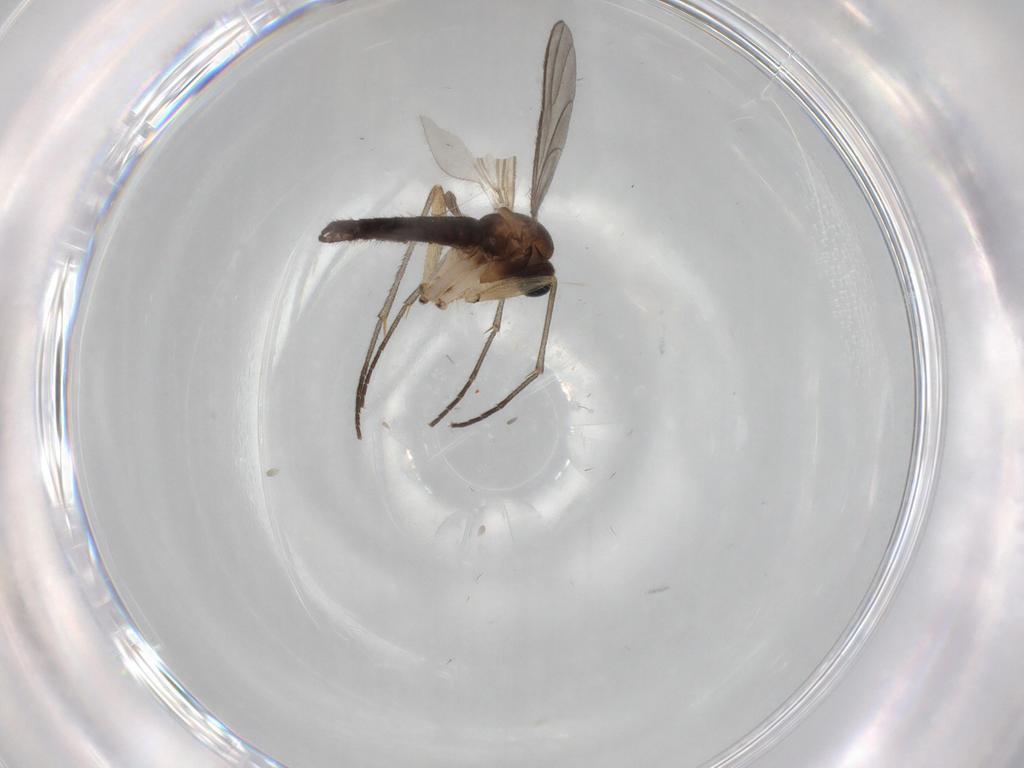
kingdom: Animalia
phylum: Arthropoda
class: Insecta
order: Diptera
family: Sciaridae
